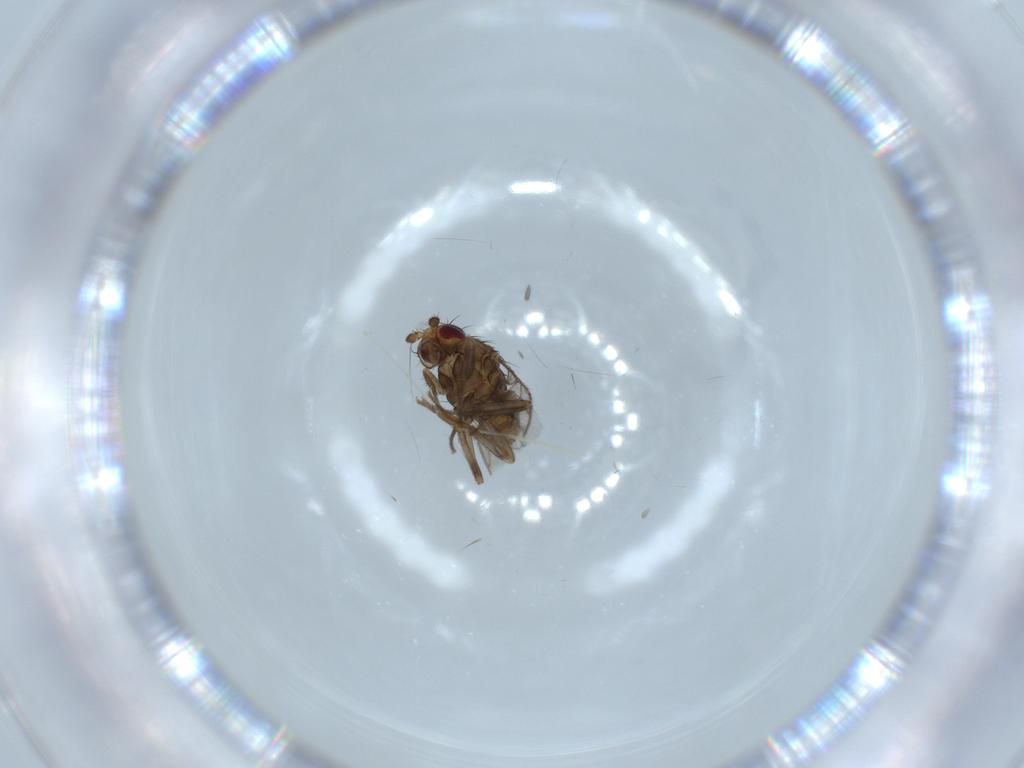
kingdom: Animalia
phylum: Arthropoda
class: Insecta
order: Diptera
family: Sphaeroceridae
